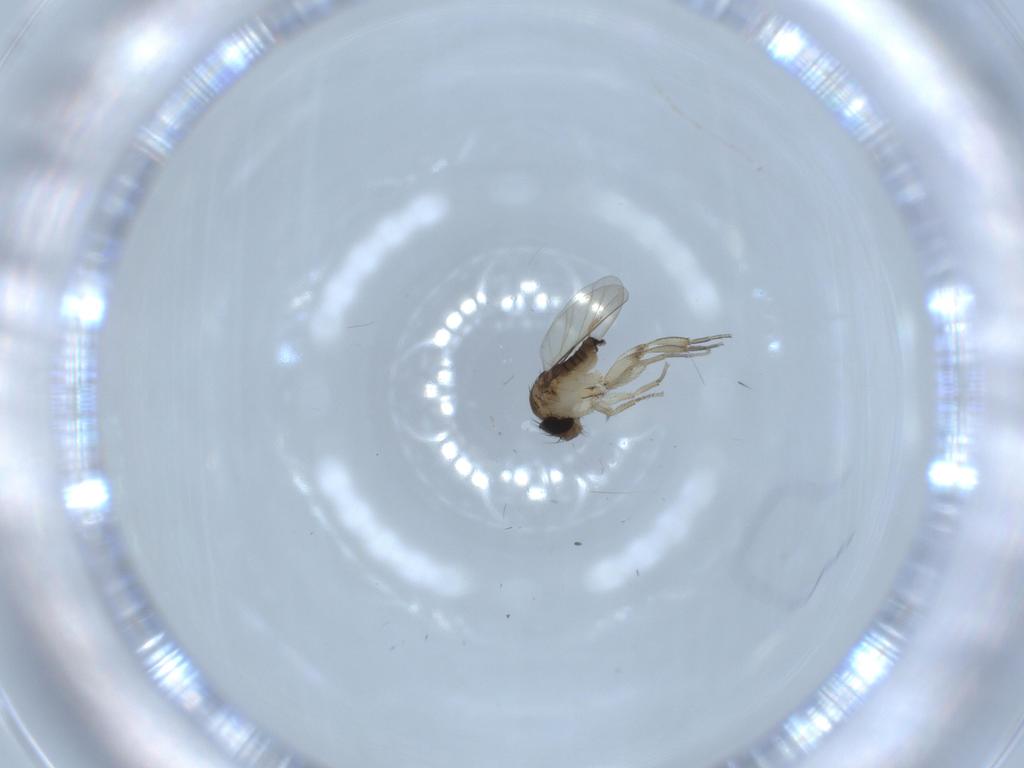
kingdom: Animalia
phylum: Arthropoda
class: Insecta
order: Diptera
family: Phoridae
